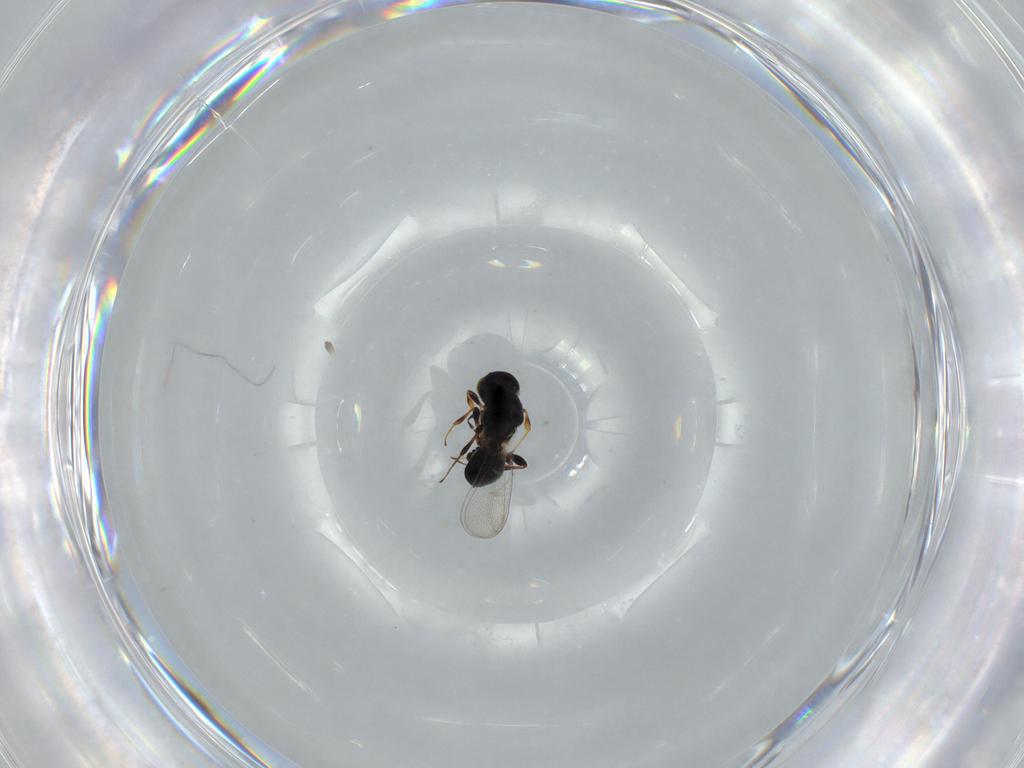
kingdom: Animalia
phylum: Arthropoda
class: Insecta
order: Hymenoptera
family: Platygastridae
